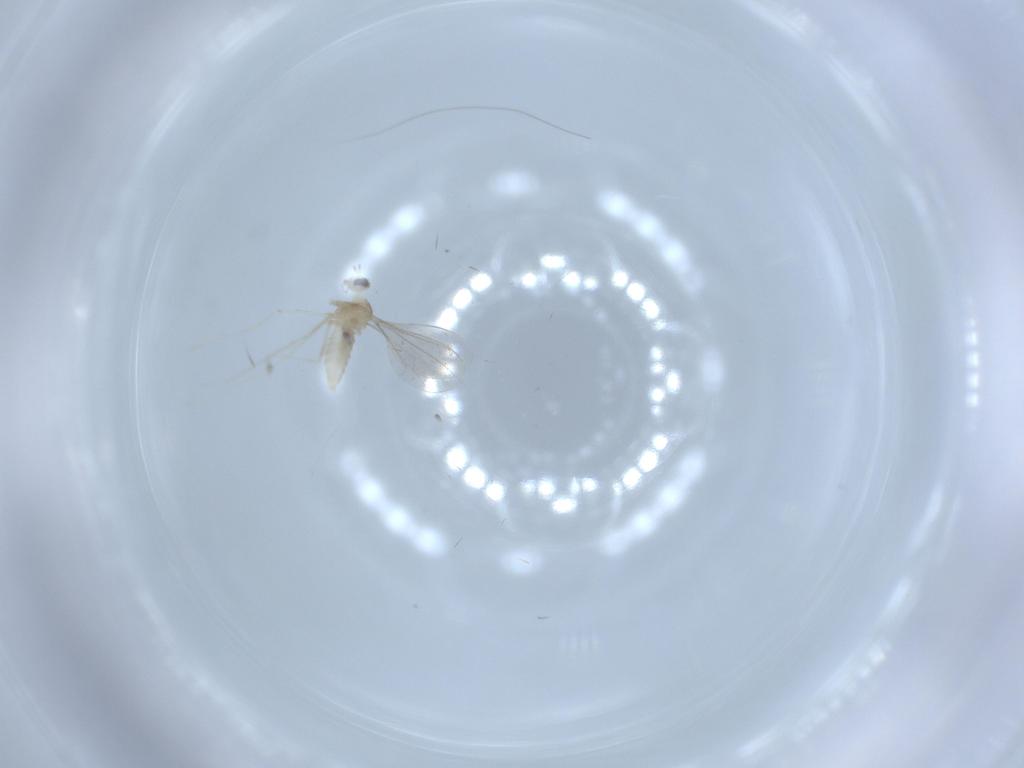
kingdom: Animalia
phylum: Arthropoda
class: Insecta
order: Diptera
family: Cecidomyiidae
